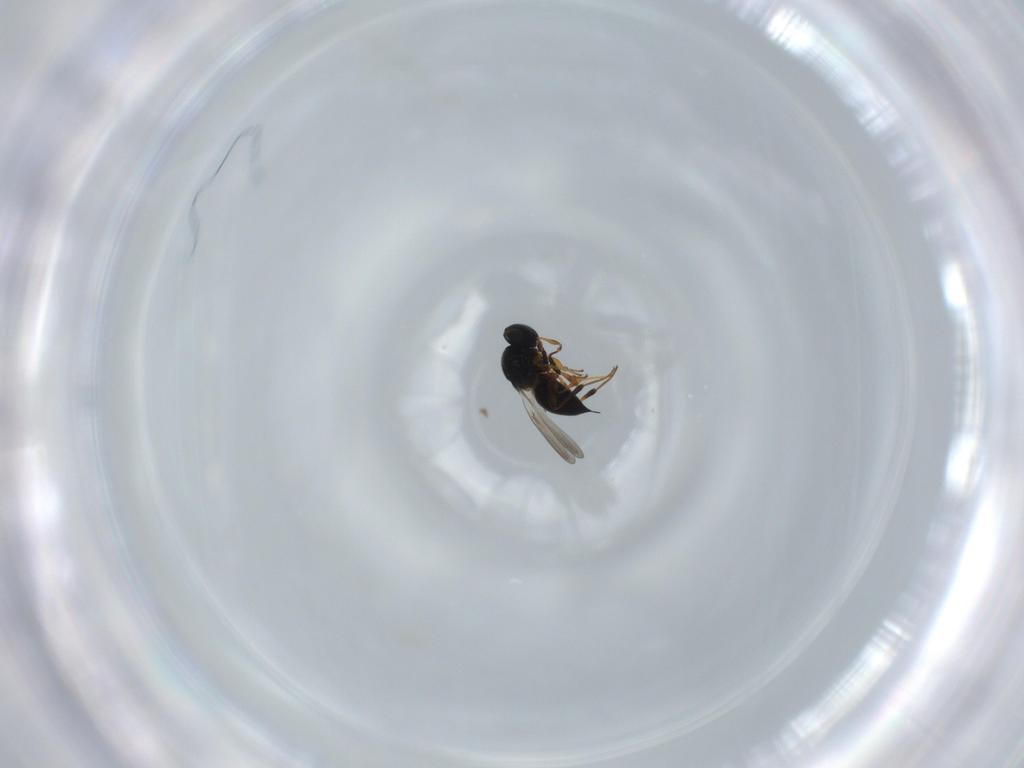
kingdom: Animalia
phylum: Arthropoda
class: Insecta
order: Hymenoptera
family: Platygastridae
